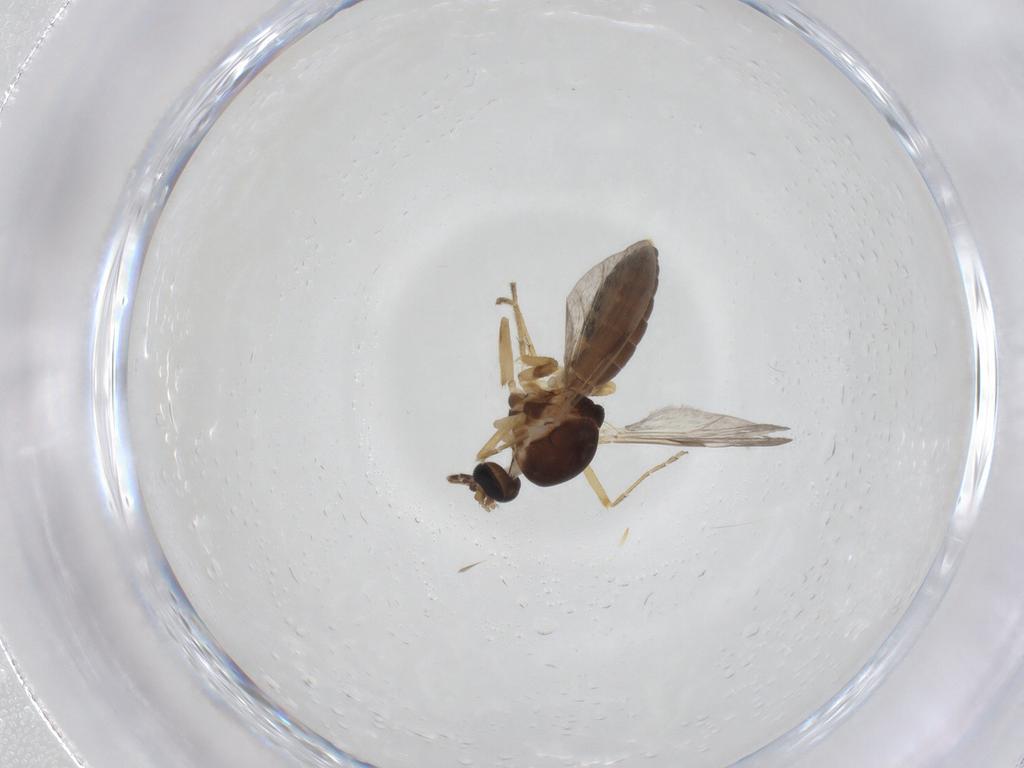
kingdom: Animalia
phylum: Arthropoda
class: Insecta
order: Diptera
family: Ceratopogonidae
